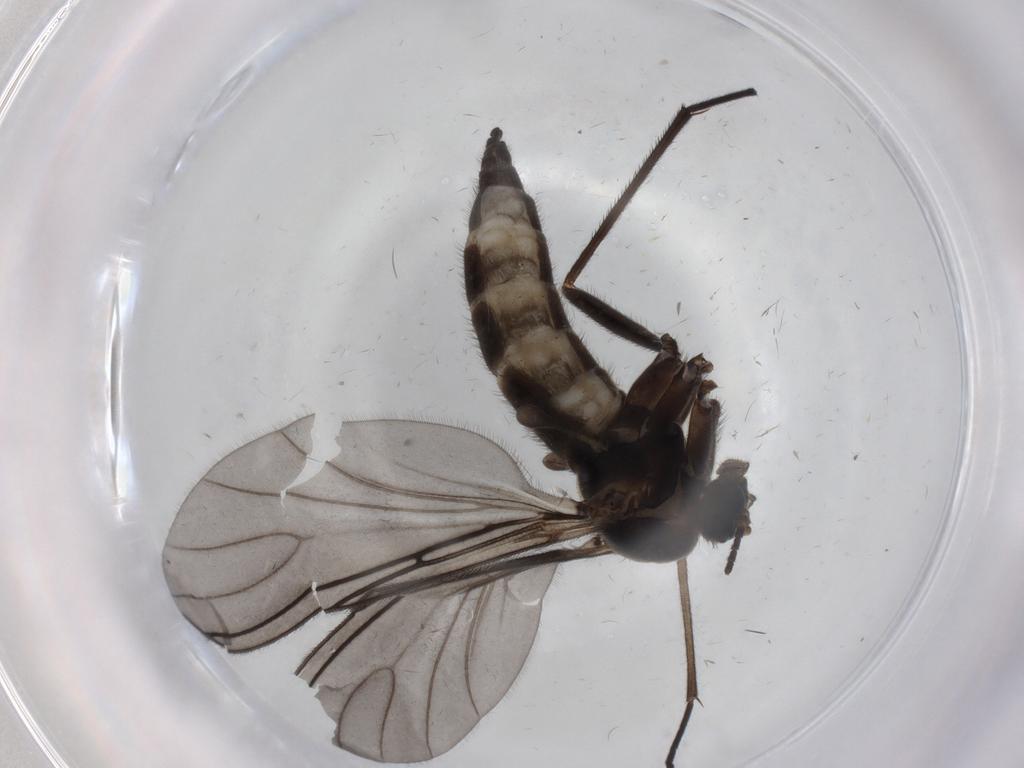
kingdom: Animalia
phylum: Arthropoda
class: Insecta
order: Diptera
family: Sciaridae
